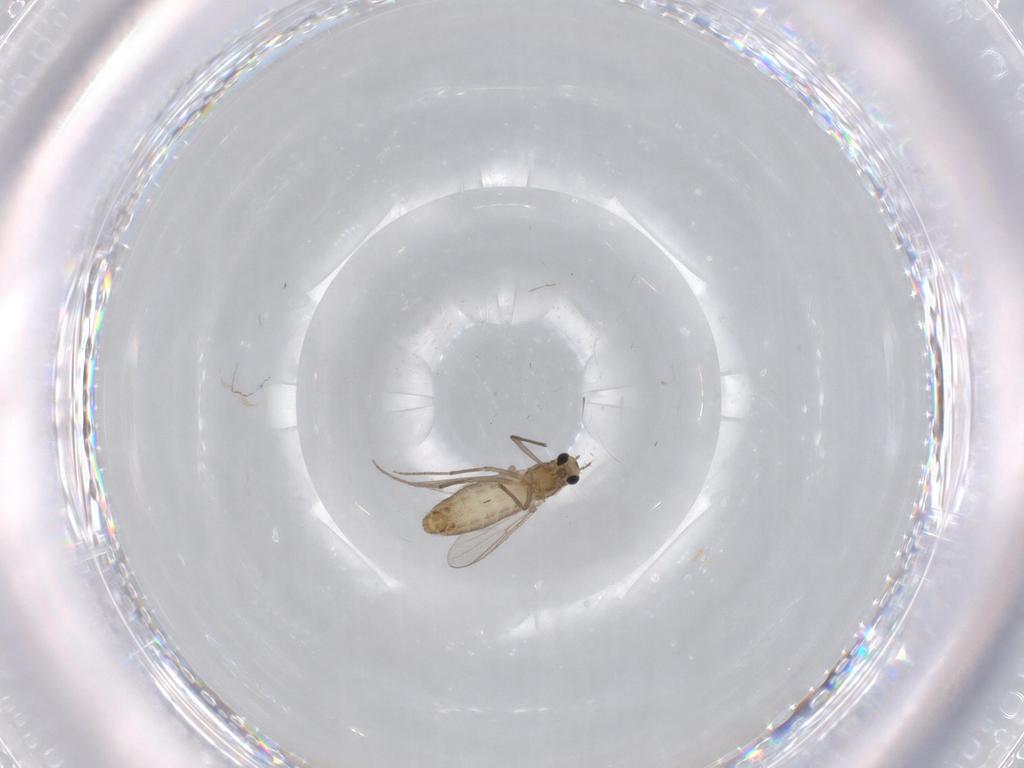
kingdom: Animalia
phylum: Arthropoda
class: Insecta
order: Diptera
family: Chironomidae
